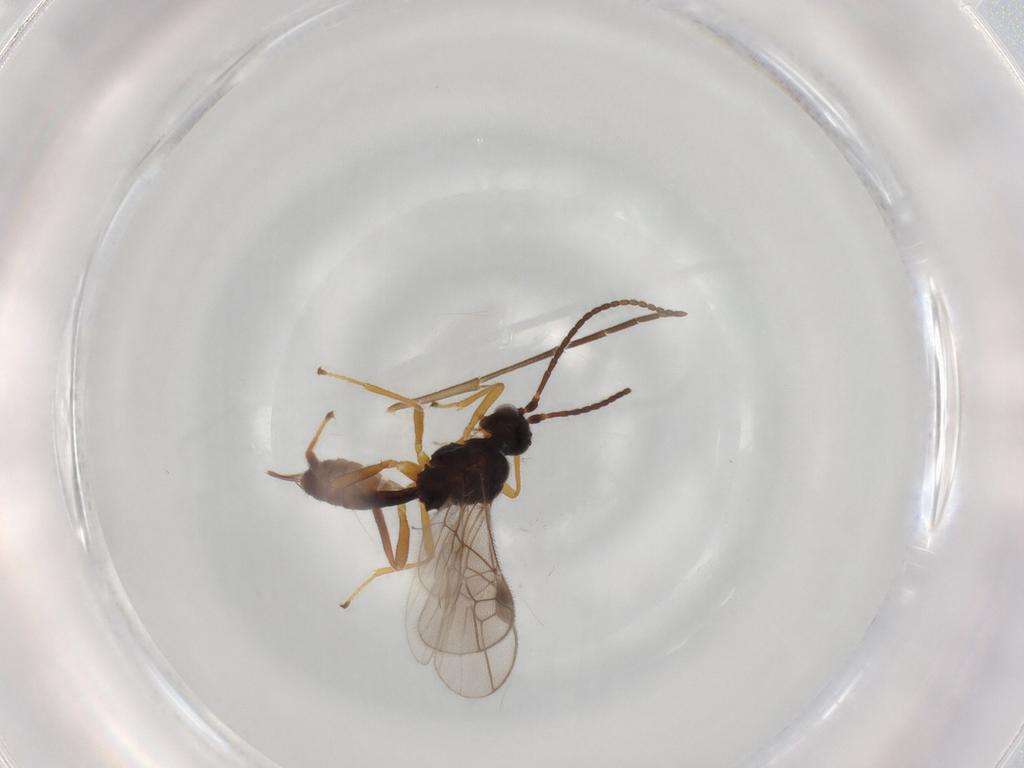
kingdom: Animalia
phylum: Arthropoda
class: Insecta
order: Hymenoptera
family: Braconidae
